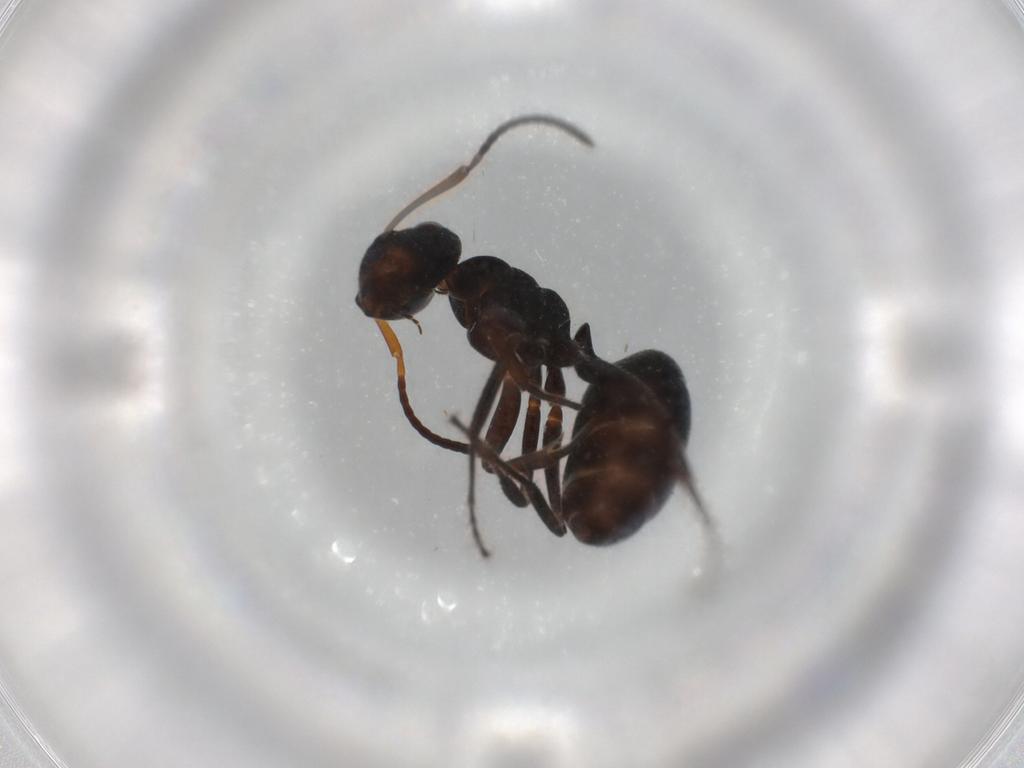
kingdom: Animalia
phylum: Arthropoda
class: Insecta
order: Hymenoptera
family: Formicidae
